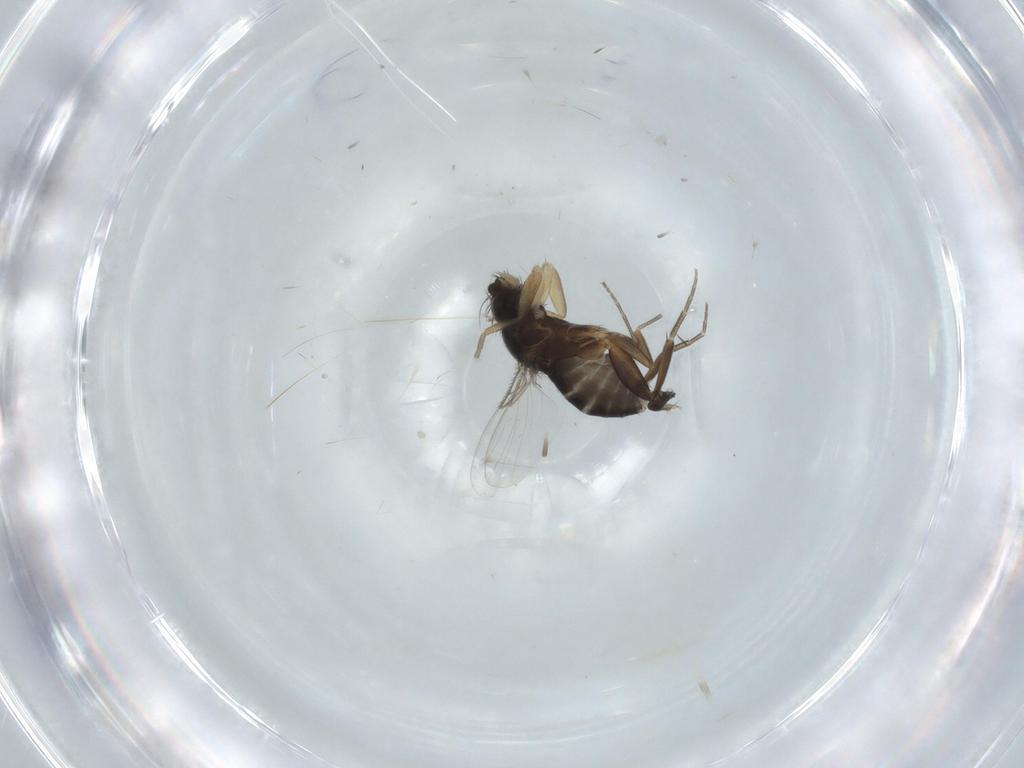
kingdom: Animalia
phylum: Arthropoda
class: Insecta
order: Diptera
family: Phoridae
